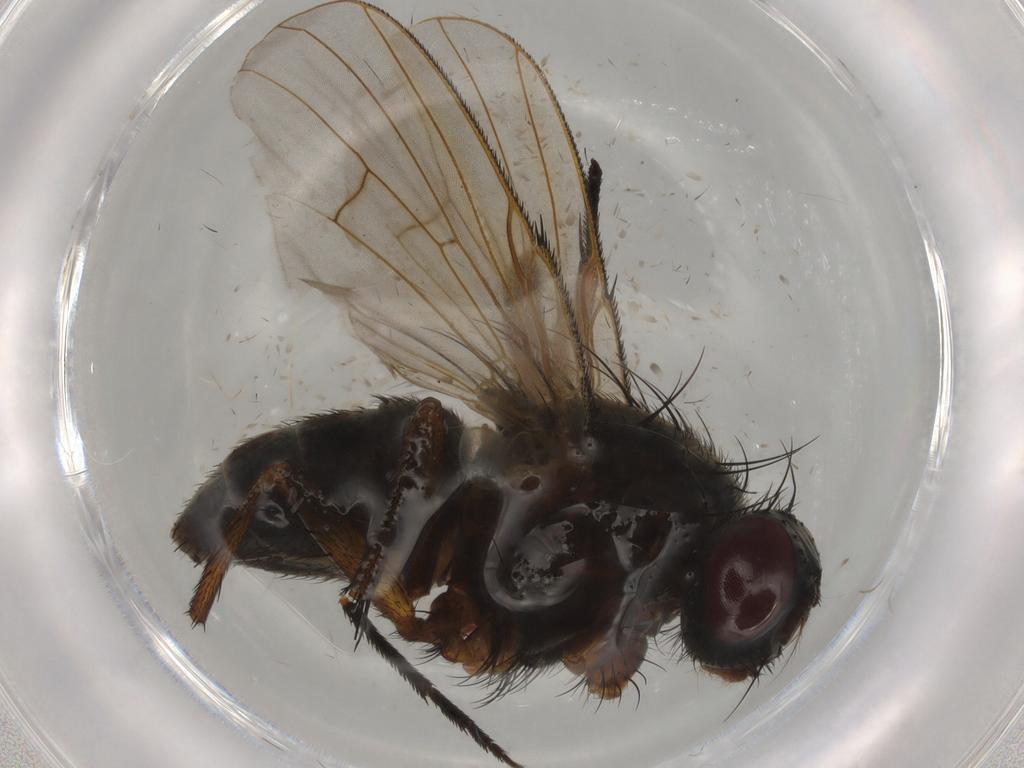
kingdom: Animalia
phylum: Arthropoda
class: Insecta
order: Diptera
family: Muscidae
